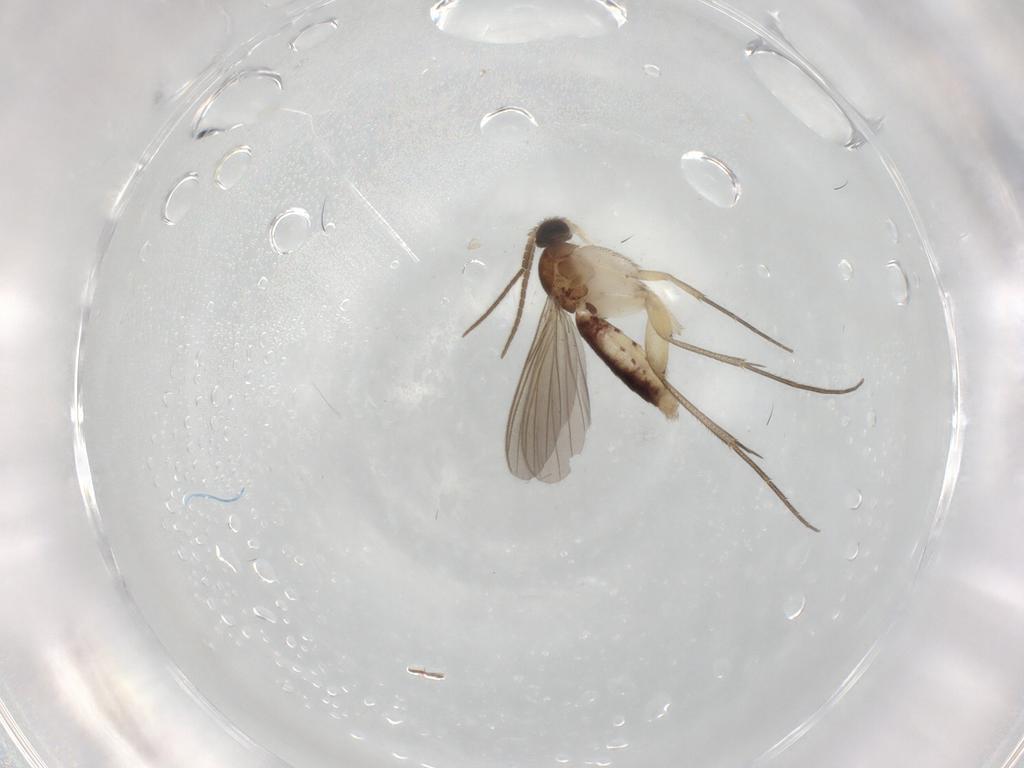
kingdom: Animalia
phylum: Arthropoda
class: Insecta
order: Diptera
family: Mycetophilidae
